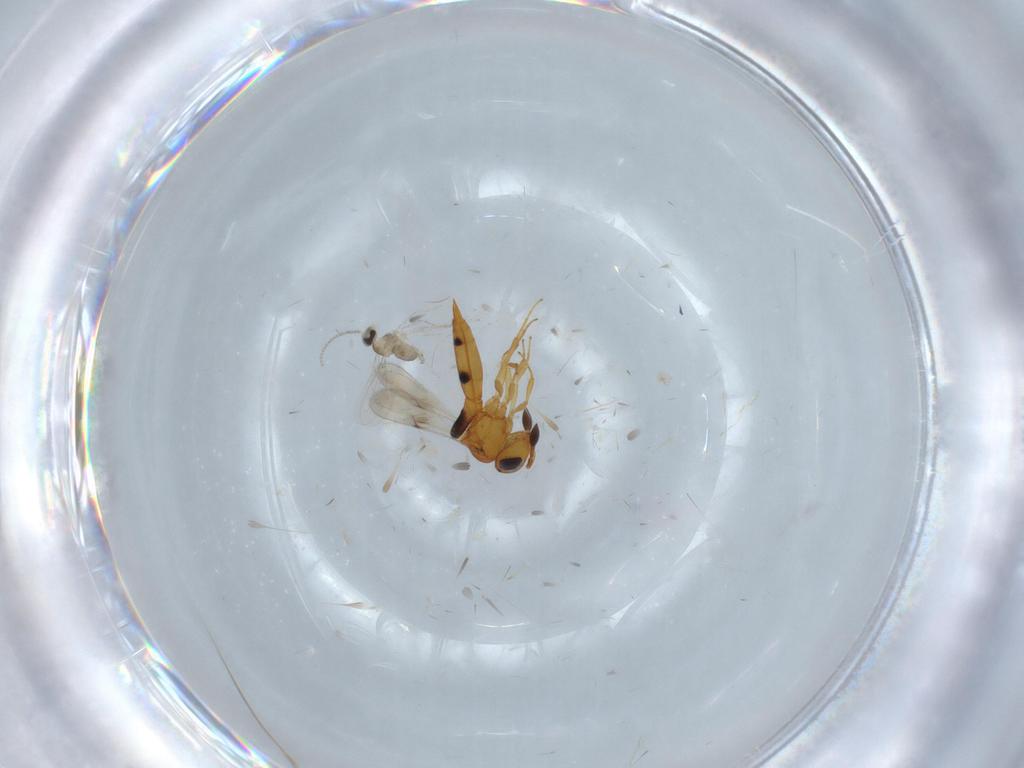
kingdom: Animalia
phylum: Arthropoda
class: Insecta
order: Hymenoptera
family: Scelionidae
